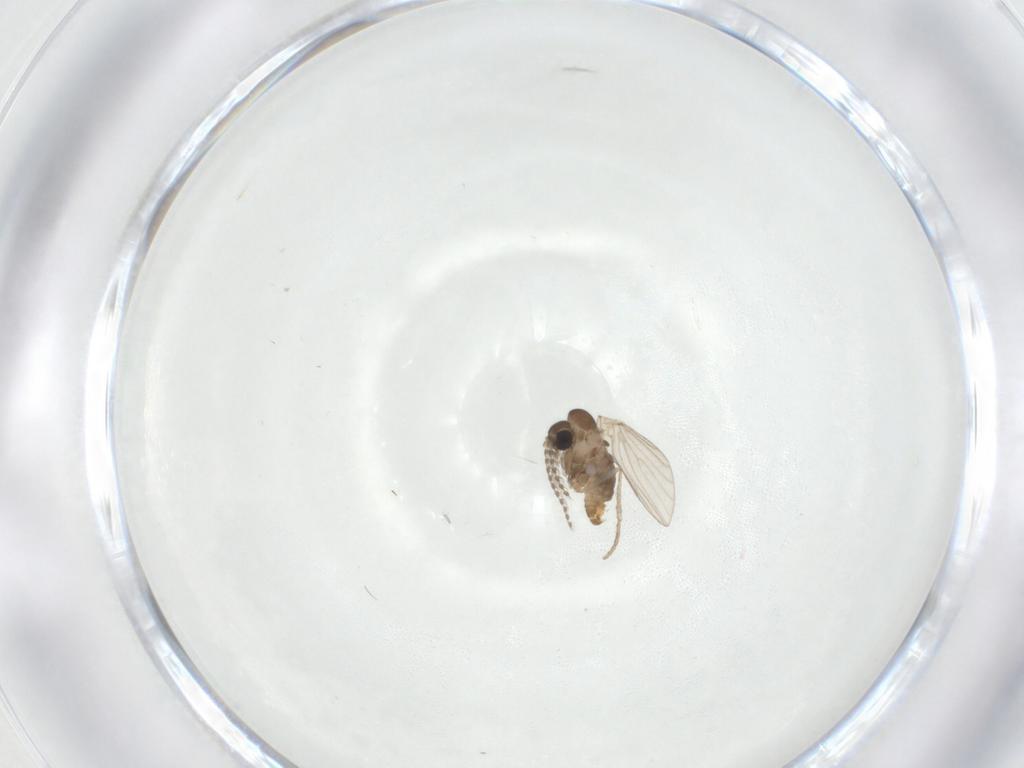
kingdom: Animalia
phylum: Arthropoda
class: Insecta
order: Diptera
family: Psychodidae
